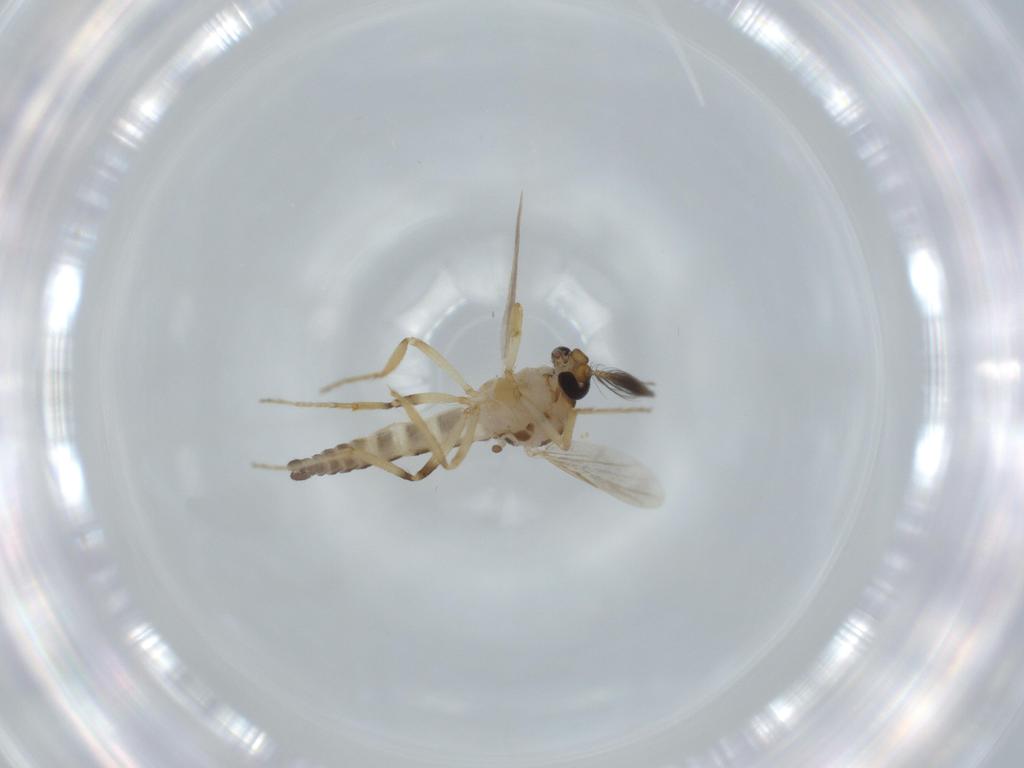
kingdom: Animalia
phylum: Arthropoda
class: Insecta
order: Diptera
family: Ceratopogonidae
